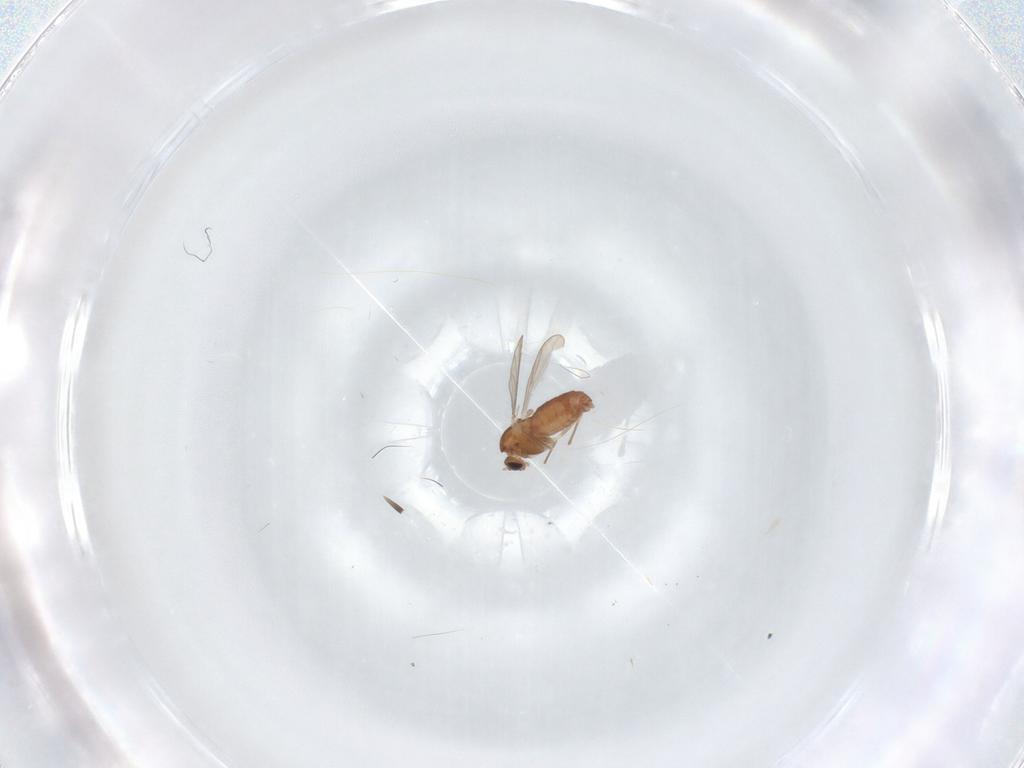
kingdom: Animalia
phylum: Arthropoda
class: Insecta
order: Diptera
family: Chironomidae
